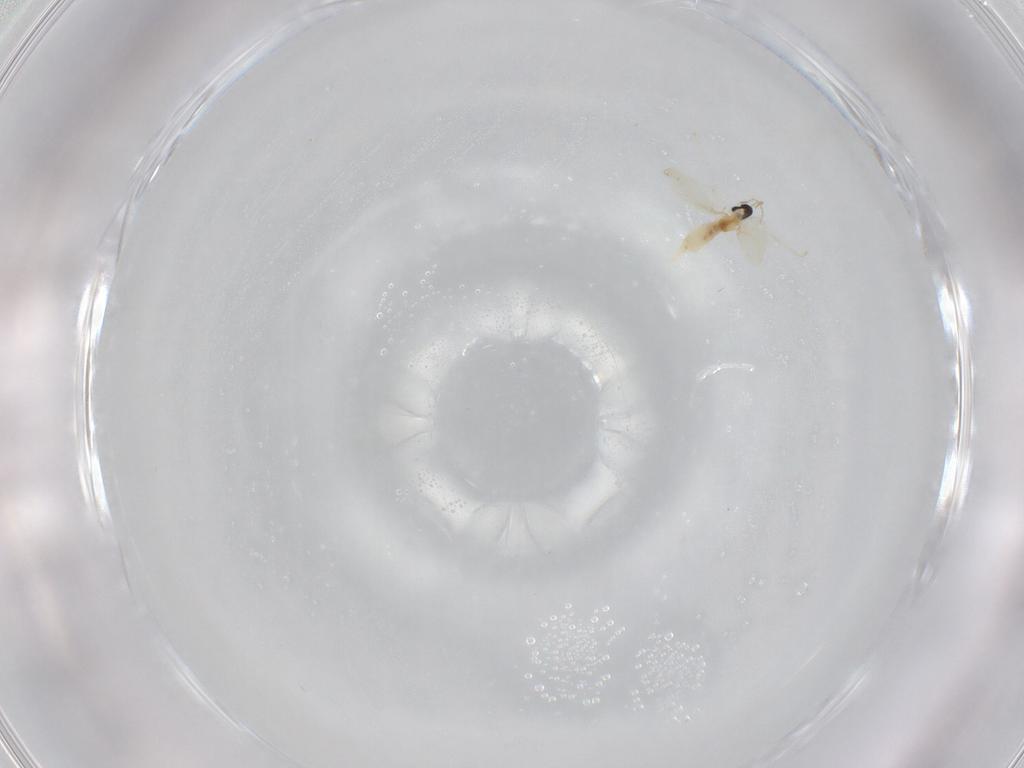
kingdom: Animalia
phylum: Arthropoda
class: Insecta
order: Diptera
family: Cecidomyiidae
